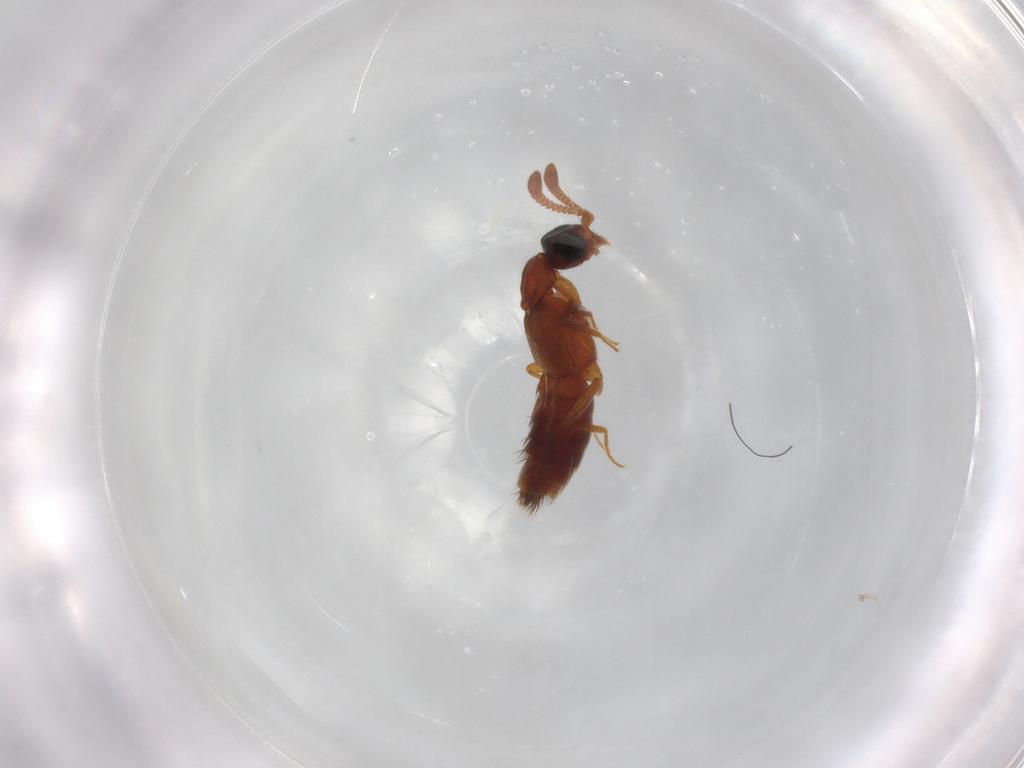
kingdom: Animalia
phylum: Arthropoda
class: Insecta
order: Coleoptera
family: Staphylinidae
